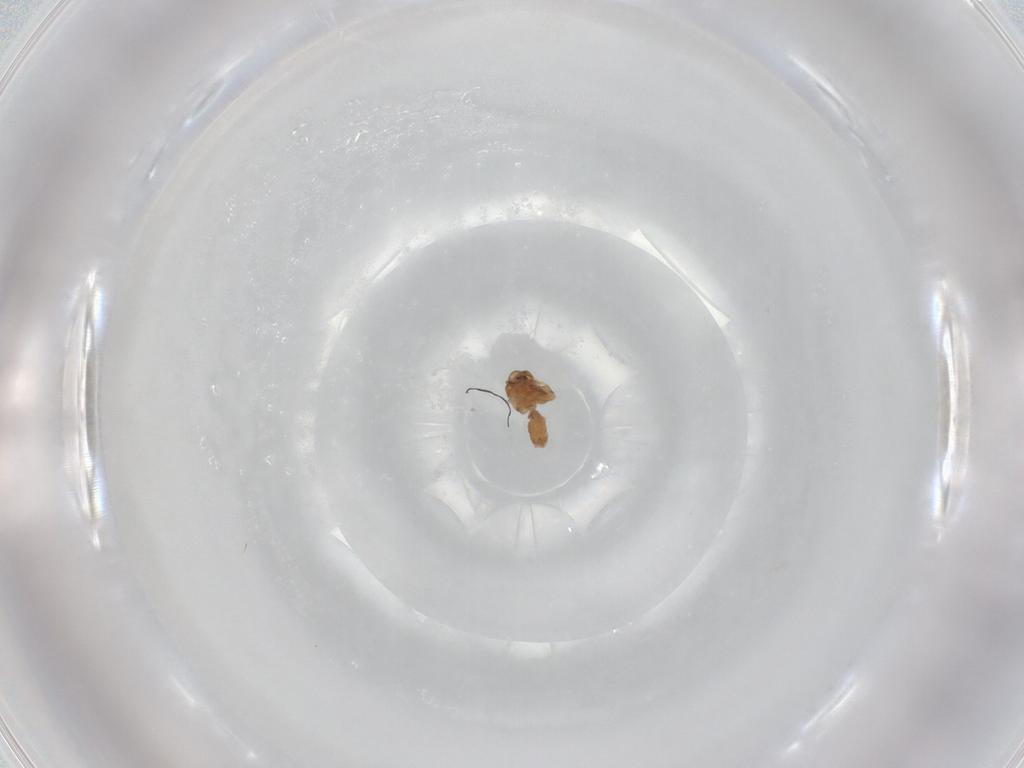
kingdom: Animalia
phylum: Arthropoda
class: Insecta
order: Hemiptera
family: Aleyrodidae
